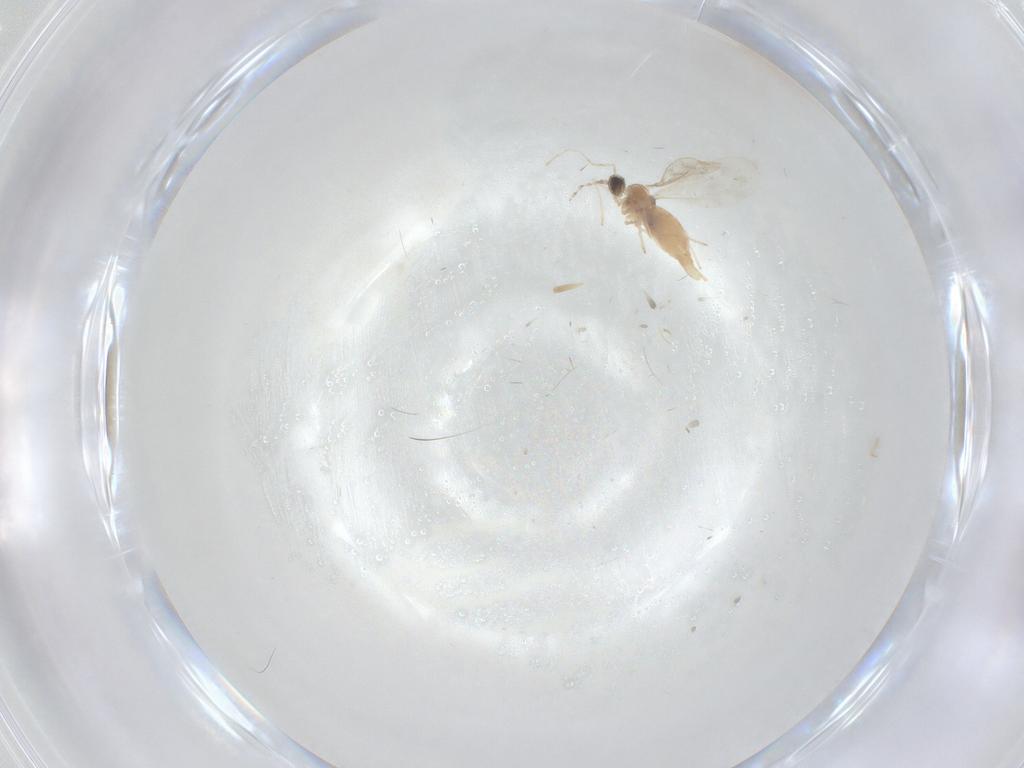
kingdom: Animalia
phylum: Arthropoda
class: Insecta
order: Diptera
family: Cecidomyiidae
